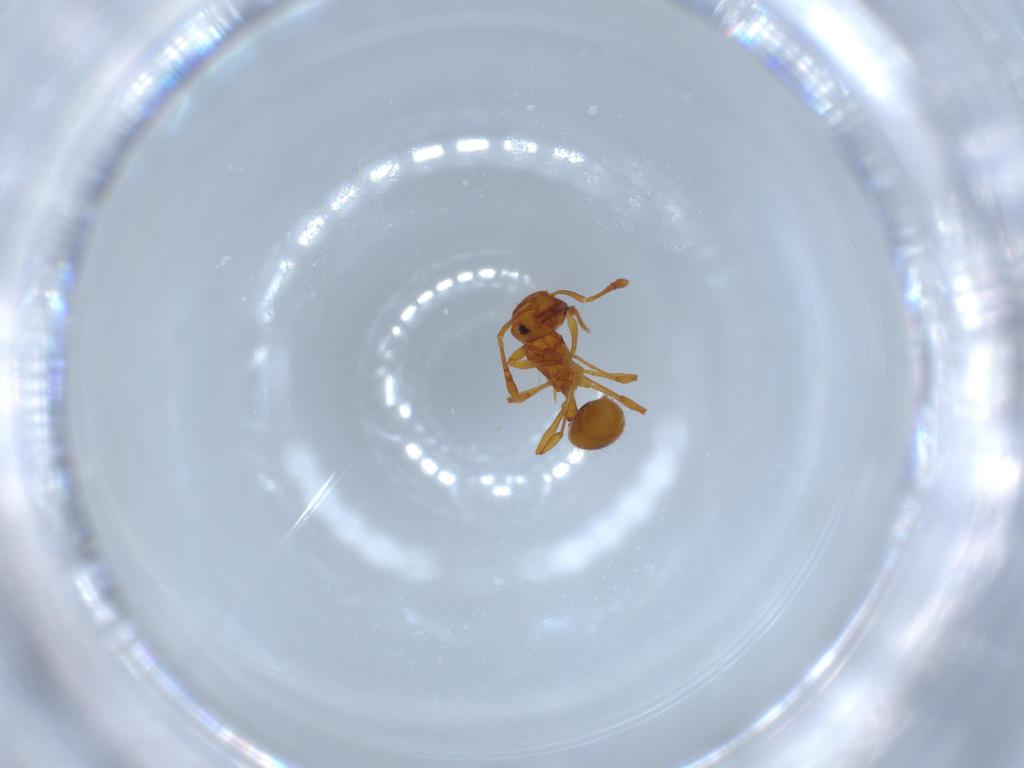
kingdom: Animalia
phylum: Arthropoda
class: Insecta
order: Hymenoptera
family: Formicidae
